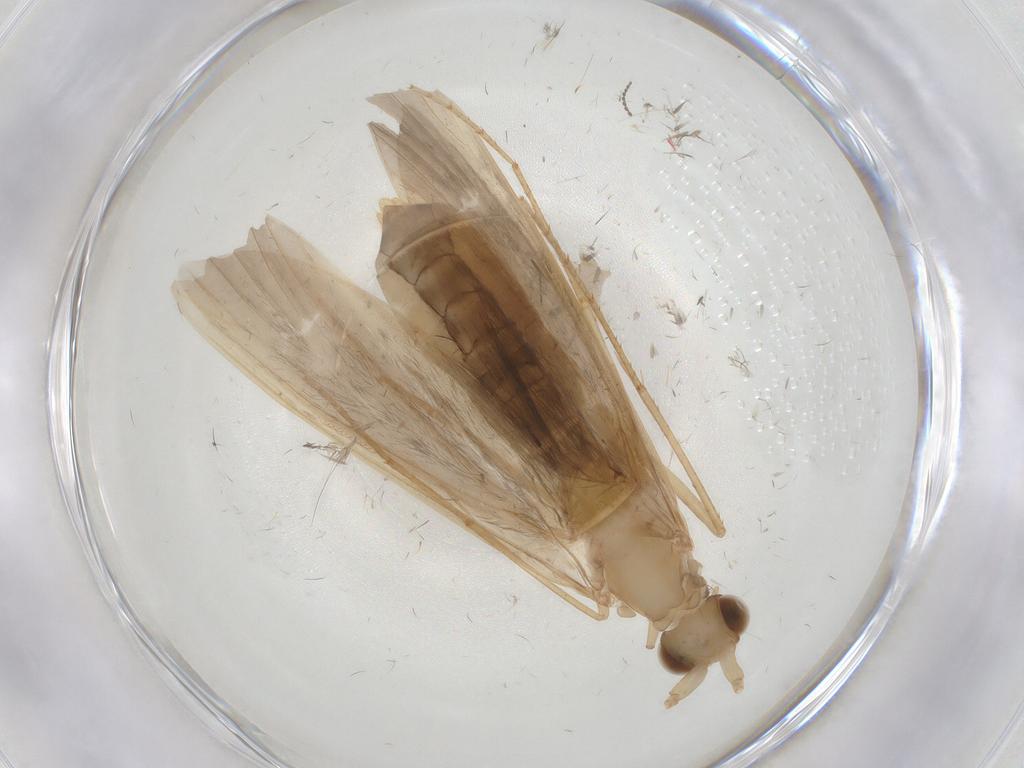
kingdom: Animalia
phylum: Arthropoda
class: Insecta
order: Trichoptera
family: Leptoceridae
